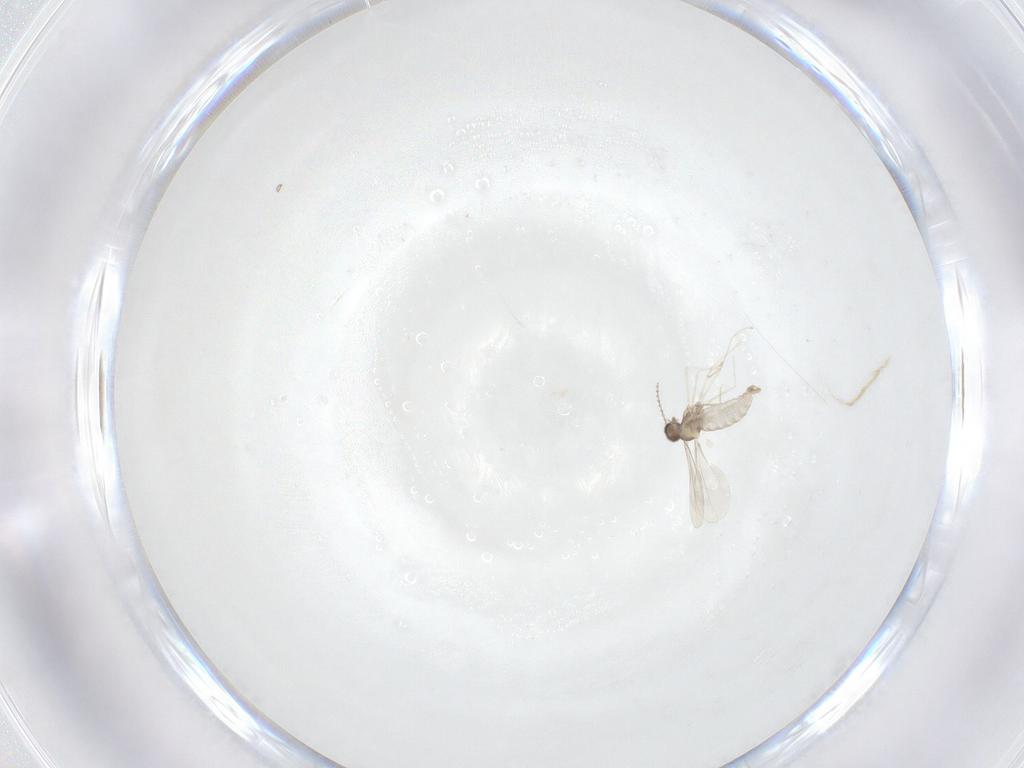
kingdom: Animalia
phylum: Arthropoda
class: Insecta
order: Diptera
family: Cecidomyiidae
